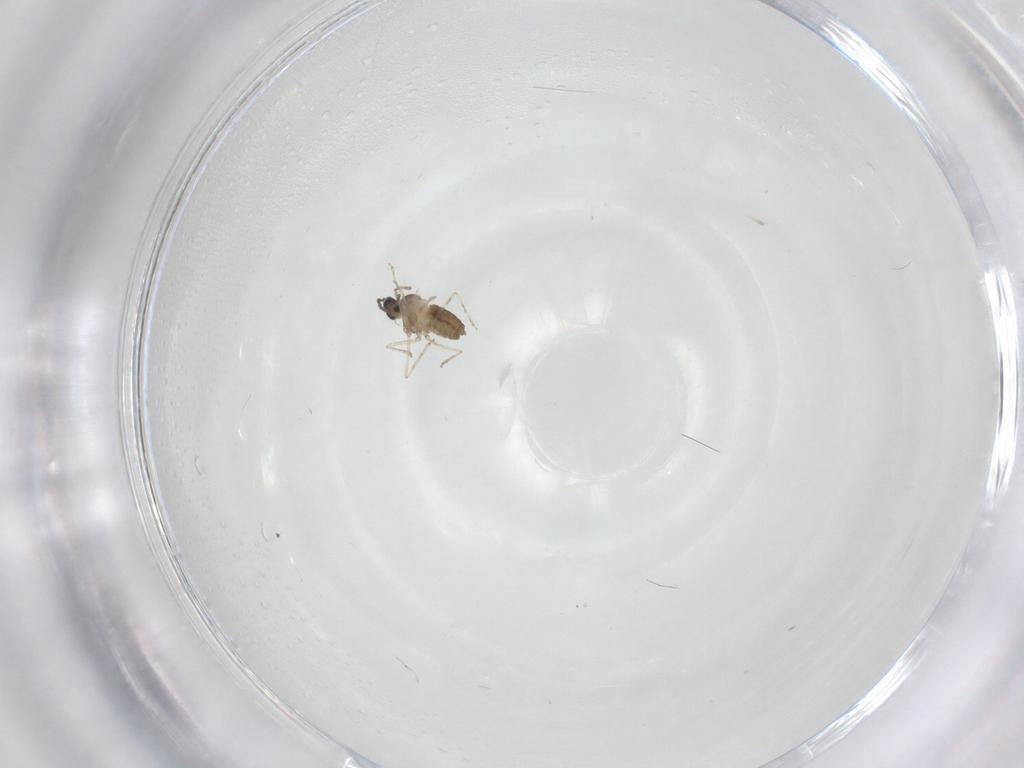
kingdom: Animalia
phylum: Arthropoda
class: Insecta
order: Diptera
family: Cecidomyiidae
